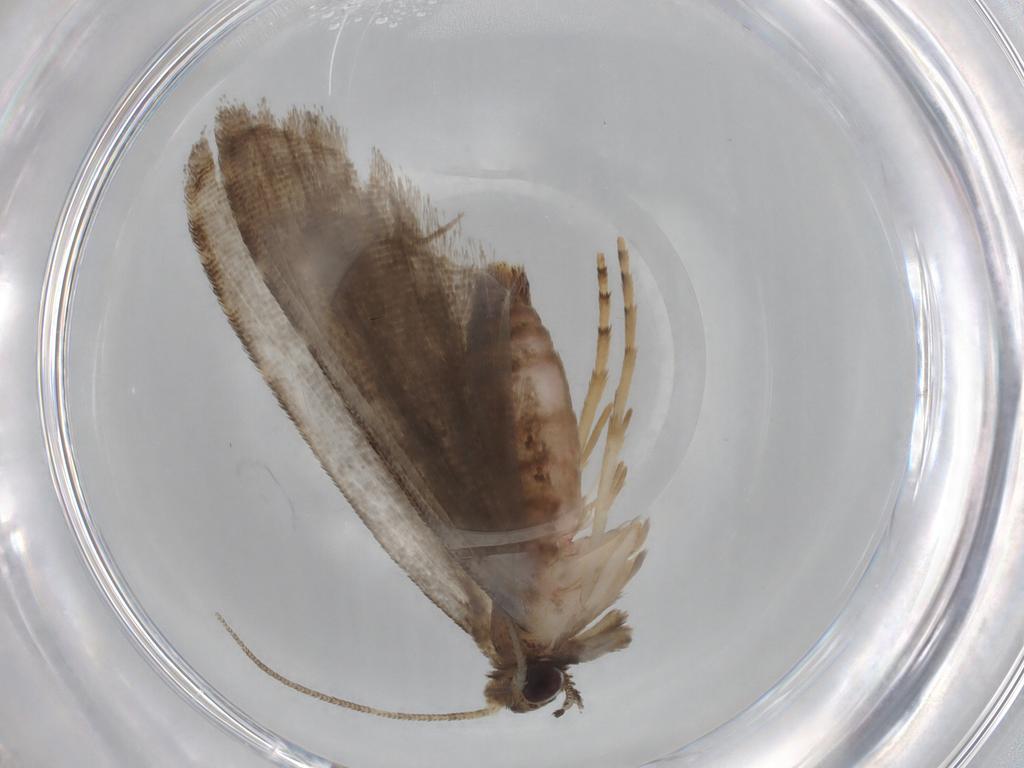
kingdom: Animalia
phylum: Arthropoda
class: Insecta
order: Lepidoptera
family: Erebidae
